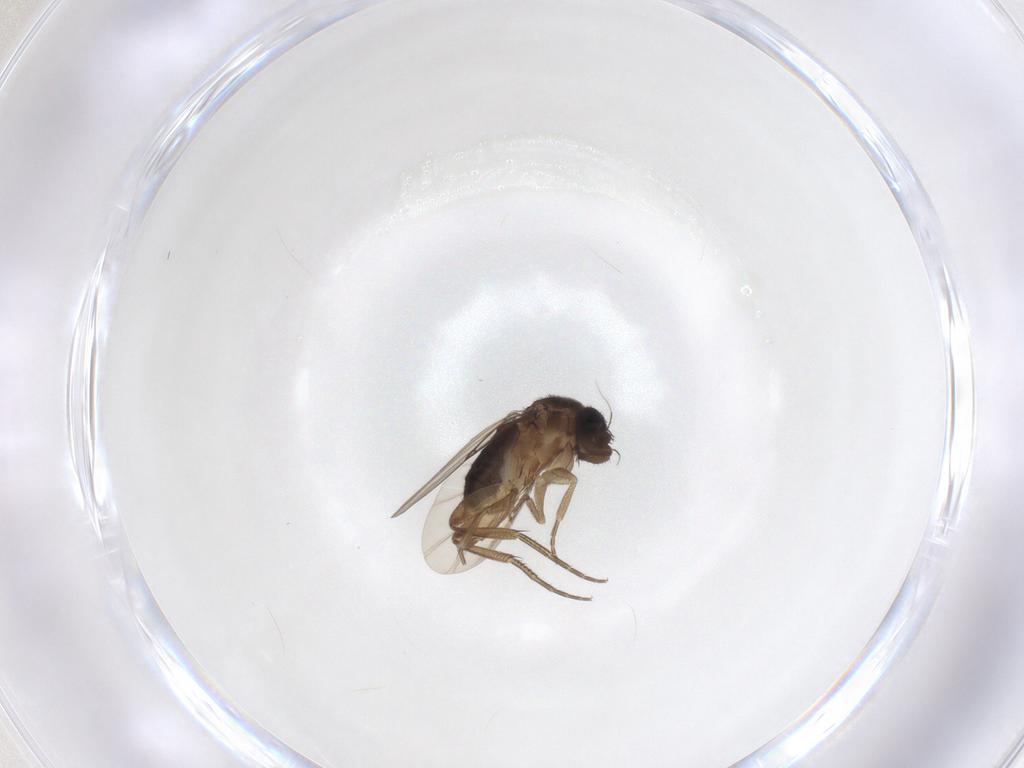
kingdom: Animalia
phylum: Arthropoda
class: Insecta
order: Diptera
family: Phoridae
